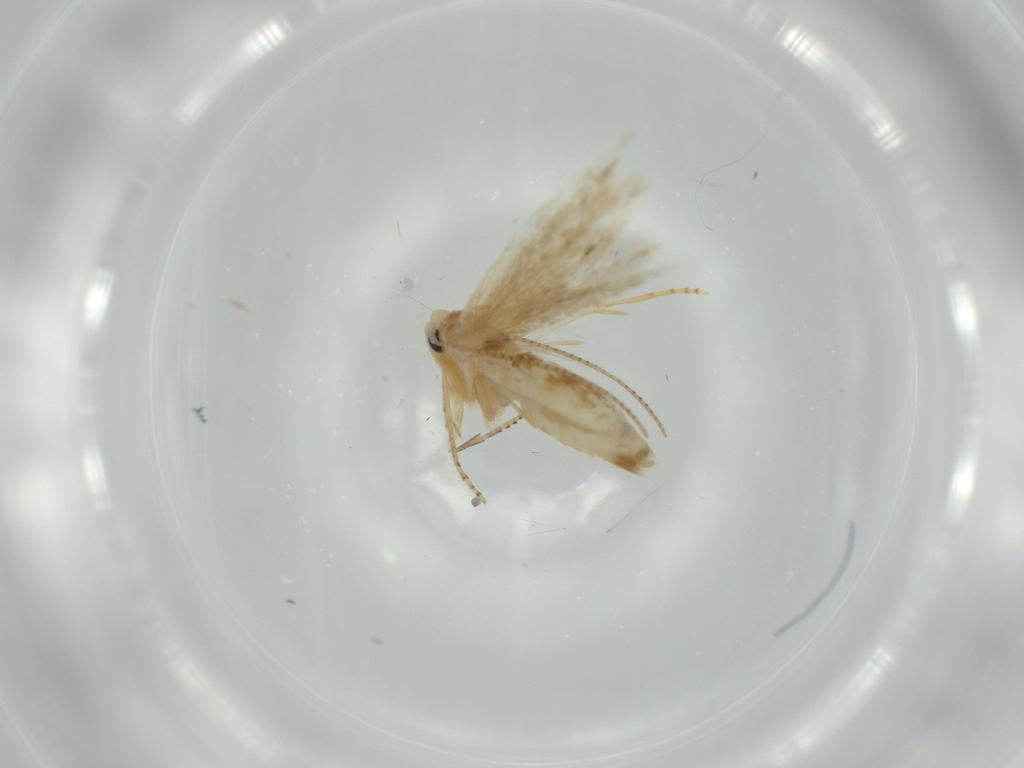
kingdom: Animalia
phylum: Arthropoda
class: Insecta
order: Lepidoptera
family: Bucculatricidae
